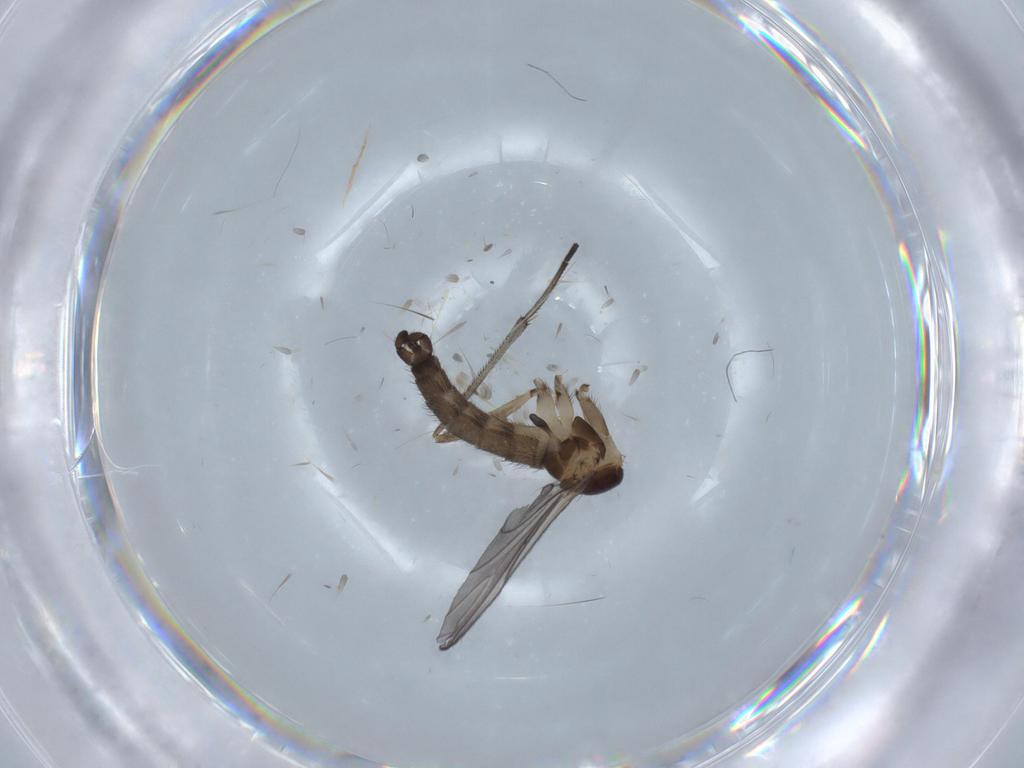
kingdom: Animalia
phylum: Arthropoda
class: Insecta
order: Diptera
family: Sciaridae
